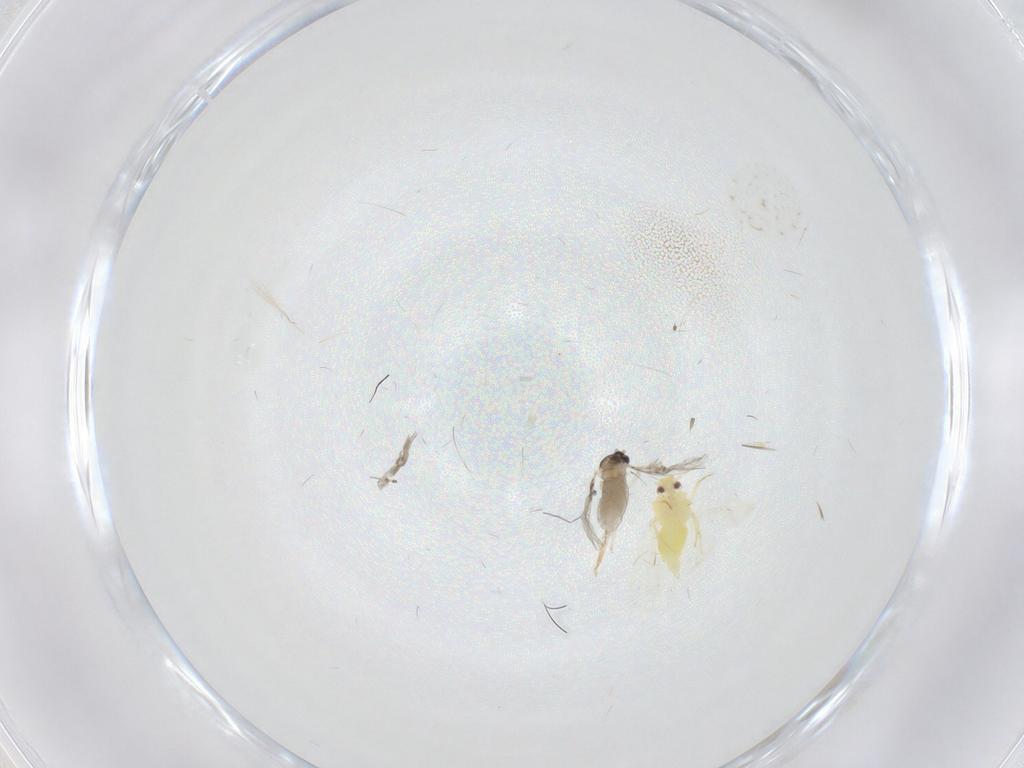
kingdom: Animalia
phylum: Arthropoda
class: Insecta
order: Diptera
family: Cecidomyiidae
